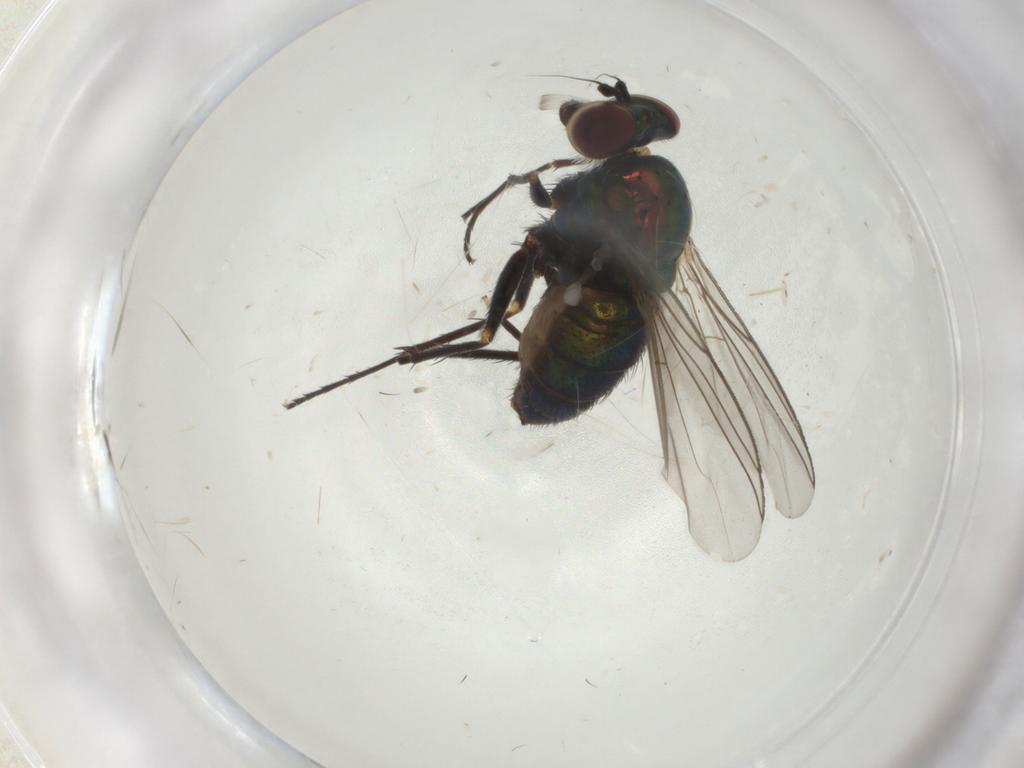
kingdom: Animalia
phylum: Arthropoda
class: Insecta
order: Diptera
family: Dolichopodidae
